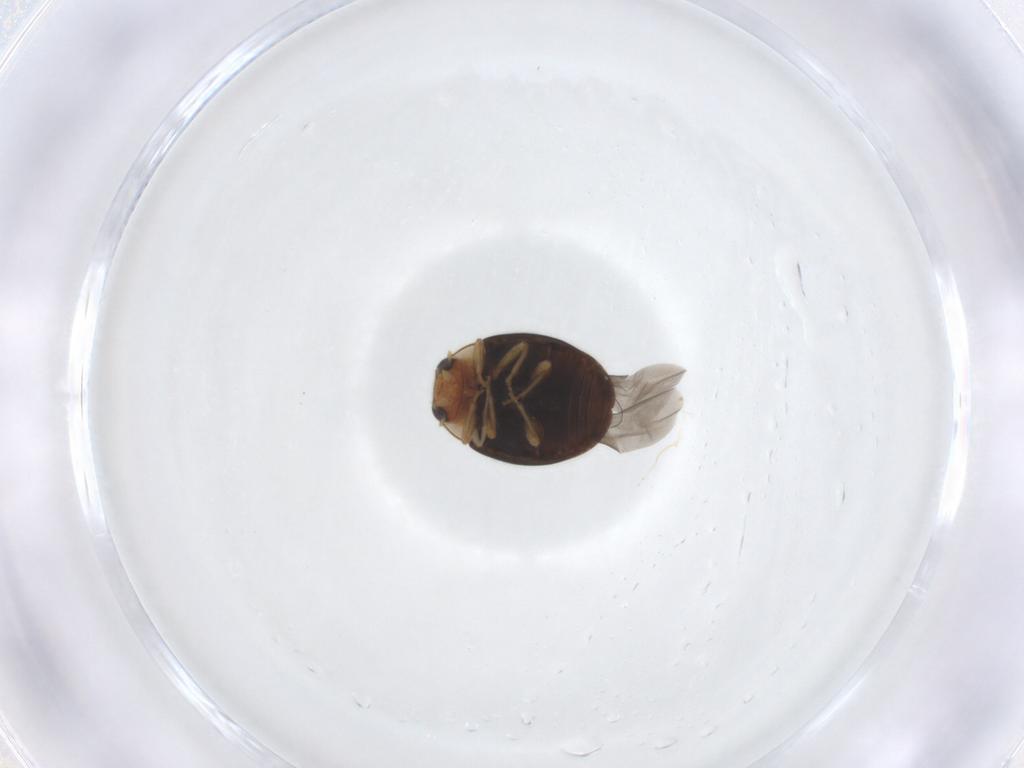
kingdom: Animalia
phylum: Arthropoda
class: Insecta
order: Coleoptera
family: Coccinellidae
